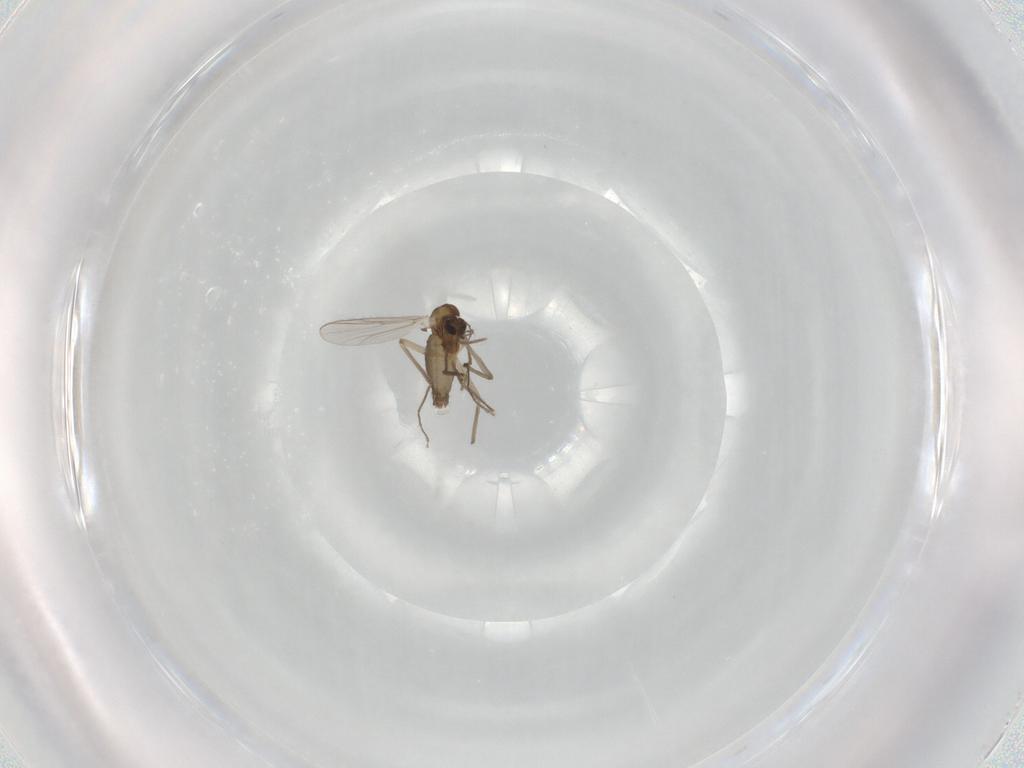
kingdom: Animalia
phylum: Arthropoda
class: Insecta
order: Diptera
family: Chironomidae
